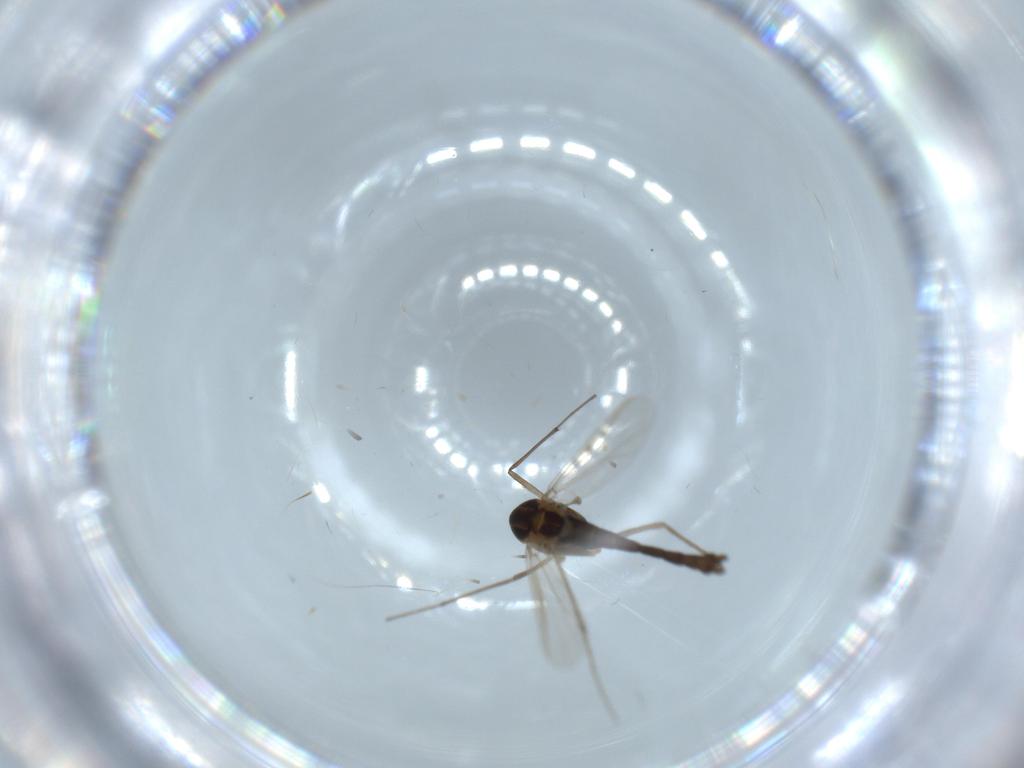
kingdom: Animalia
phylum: Arthropoda
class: Insecta
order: Diptera
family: Chironomidae
